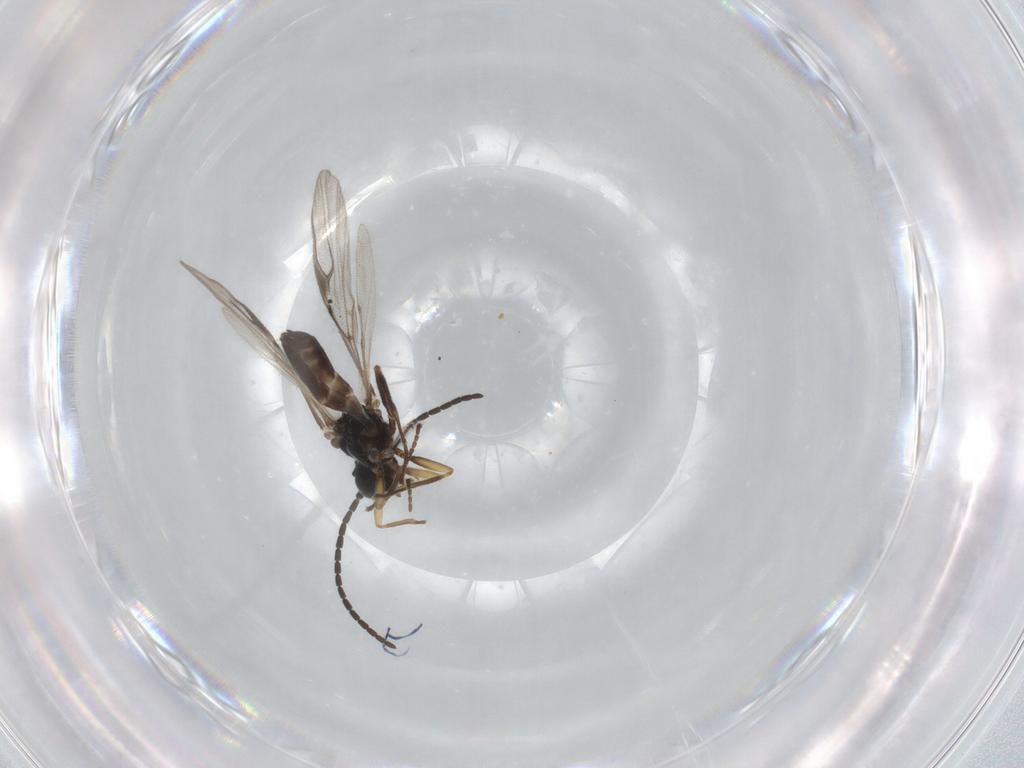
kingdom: Animalia
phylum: Arthropoda
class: Insecta
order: Hymenoptera
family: Braconidae
